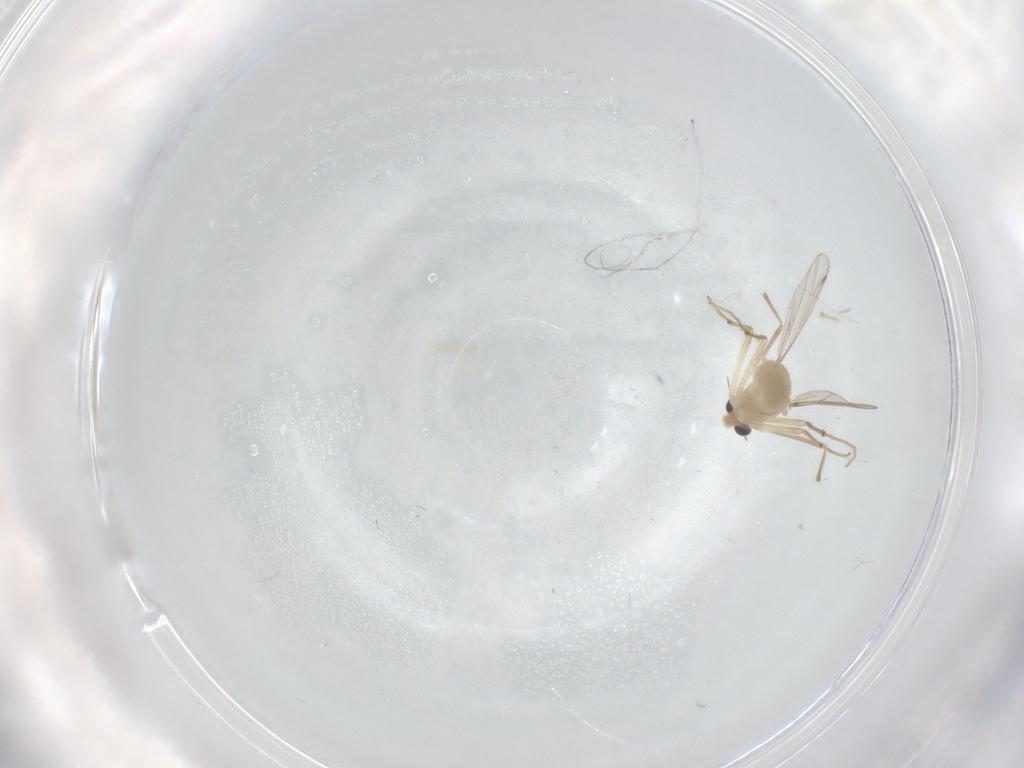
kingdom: Animalia
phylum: Arthropoda
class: Insecta
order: Diptera
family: Chironomidae
